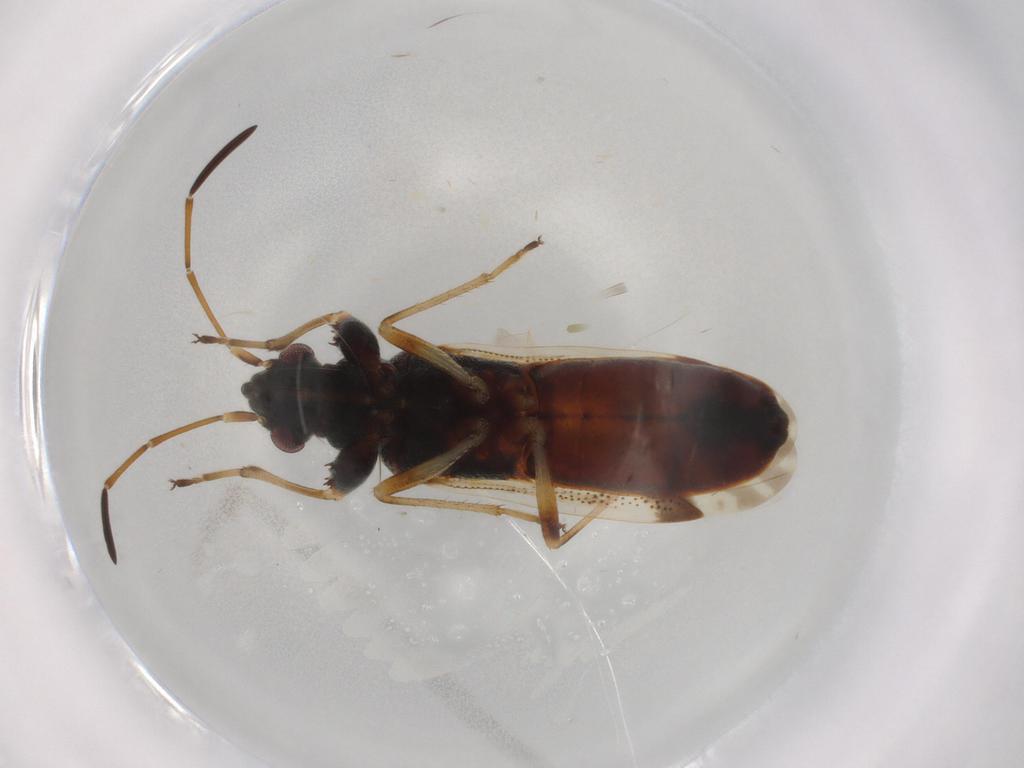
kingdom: Animalia
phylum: Arthropoda
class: Insecta
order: Hemiptera
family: Rhyparochromidae
